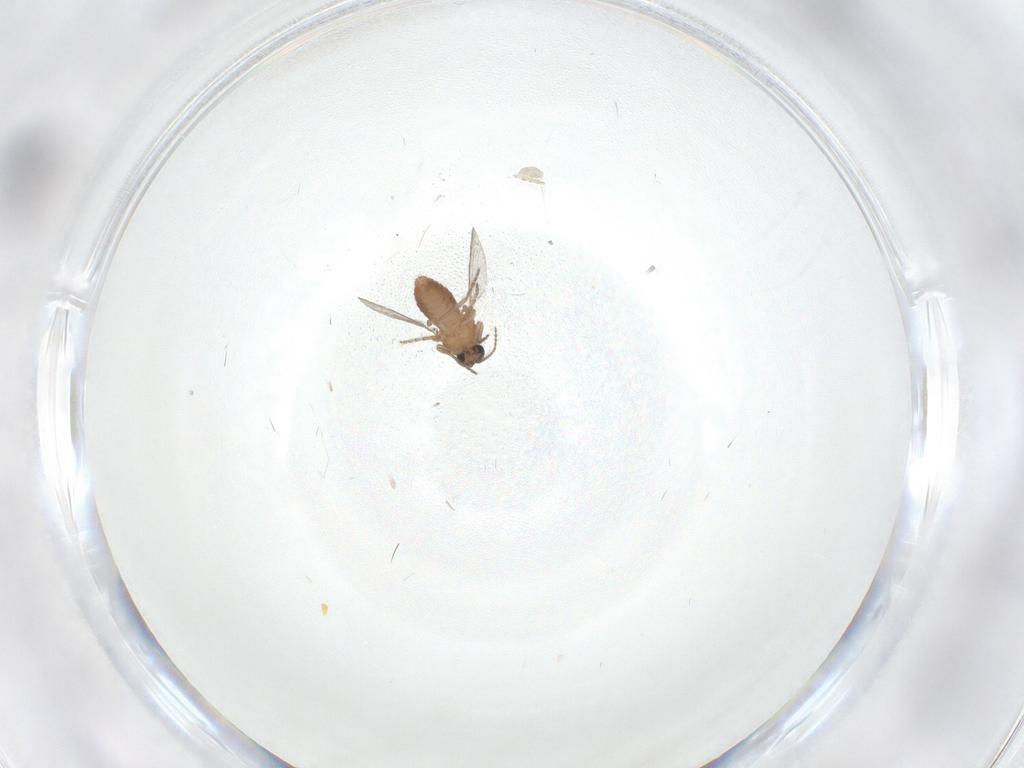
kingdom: Animalia
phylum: Arthropoda
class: Insecta
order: Diptera
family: Ceratopogonidae
